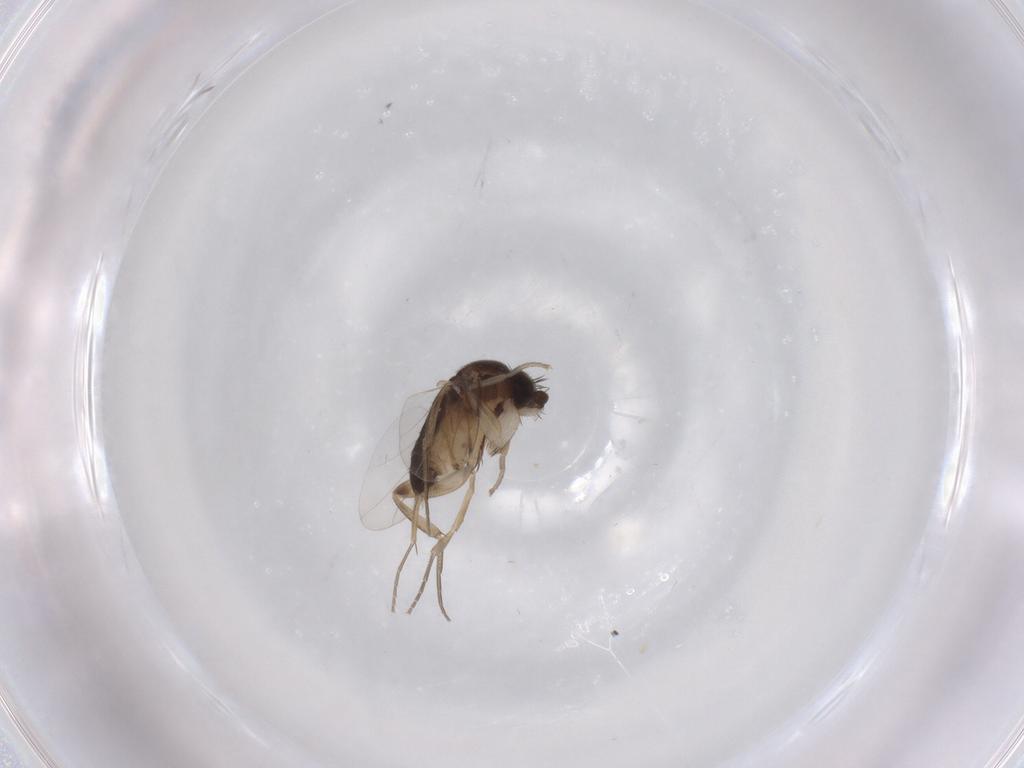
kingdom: Animalia
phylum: Arthropoda
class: Insecta
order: Diptera
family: Phoridae
